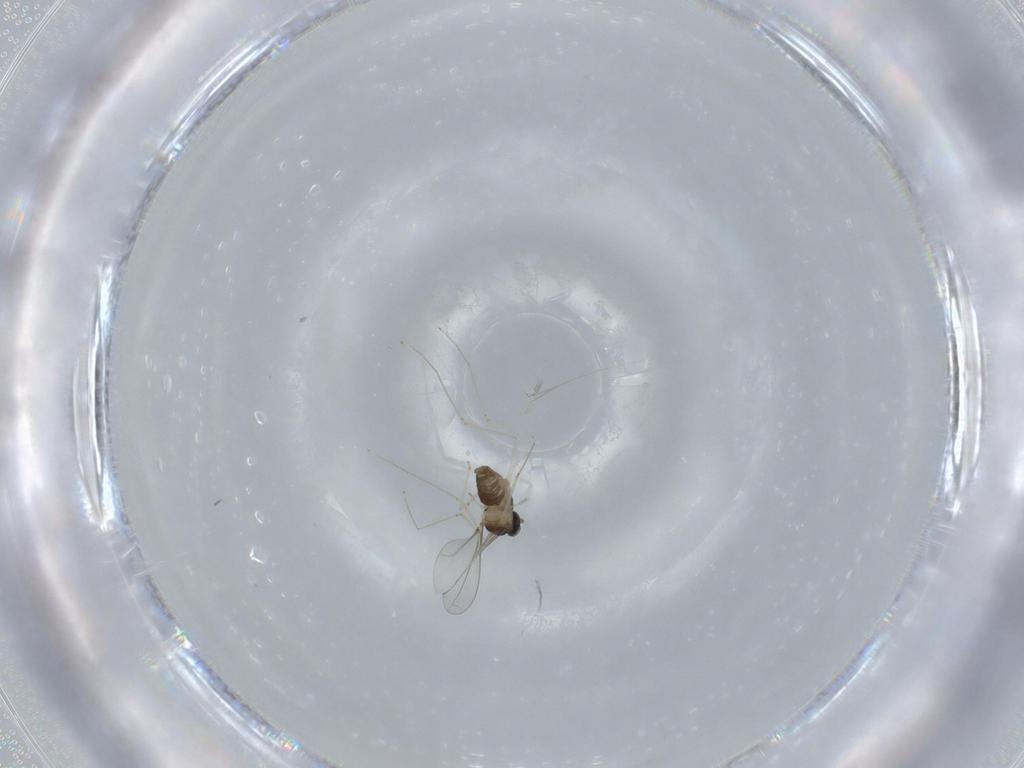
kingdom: Animalia
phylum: Arthropoda
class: Insecta
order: Diptera
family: Cecidomyiidae
